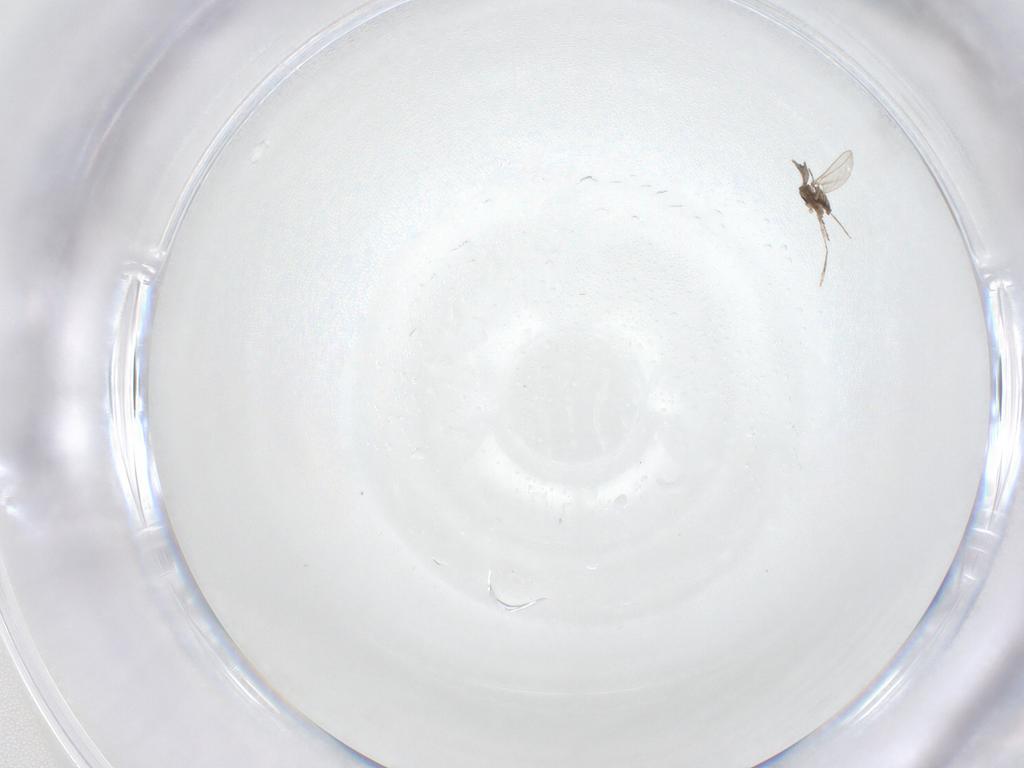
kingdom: Animalia
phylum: Arthropoda
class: Insecta
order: Diptera
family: Cecidomyiidae
